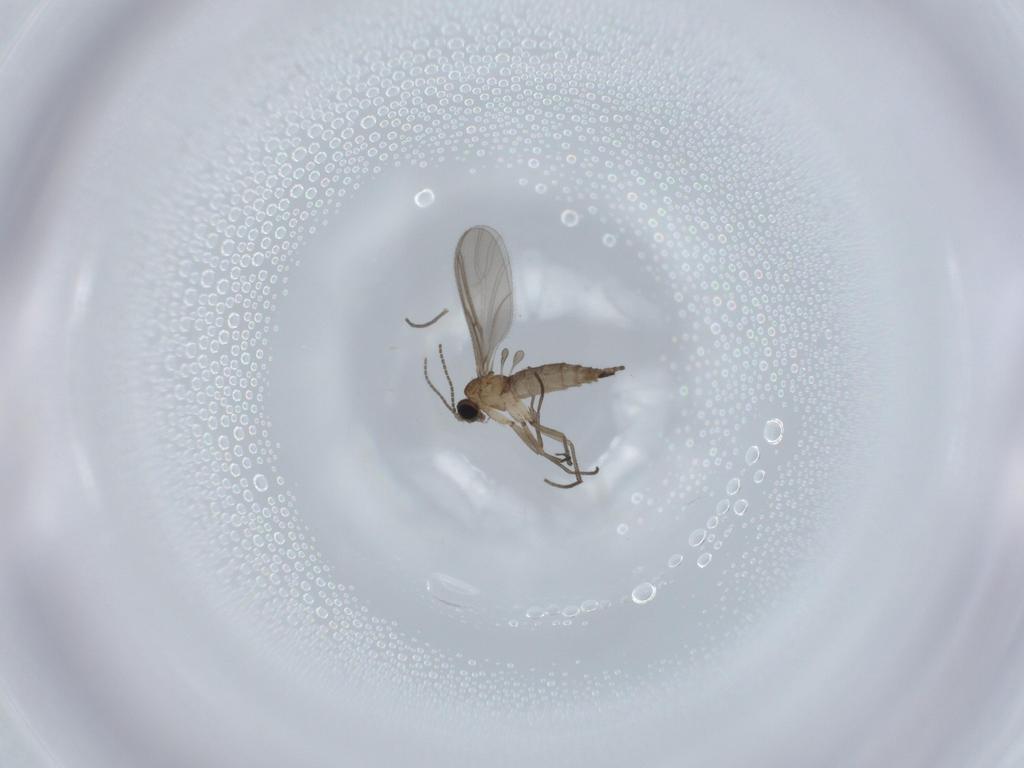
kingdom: Animalia
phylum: Arthropoda
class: Insecta
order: Diptera
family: Sciaridae
